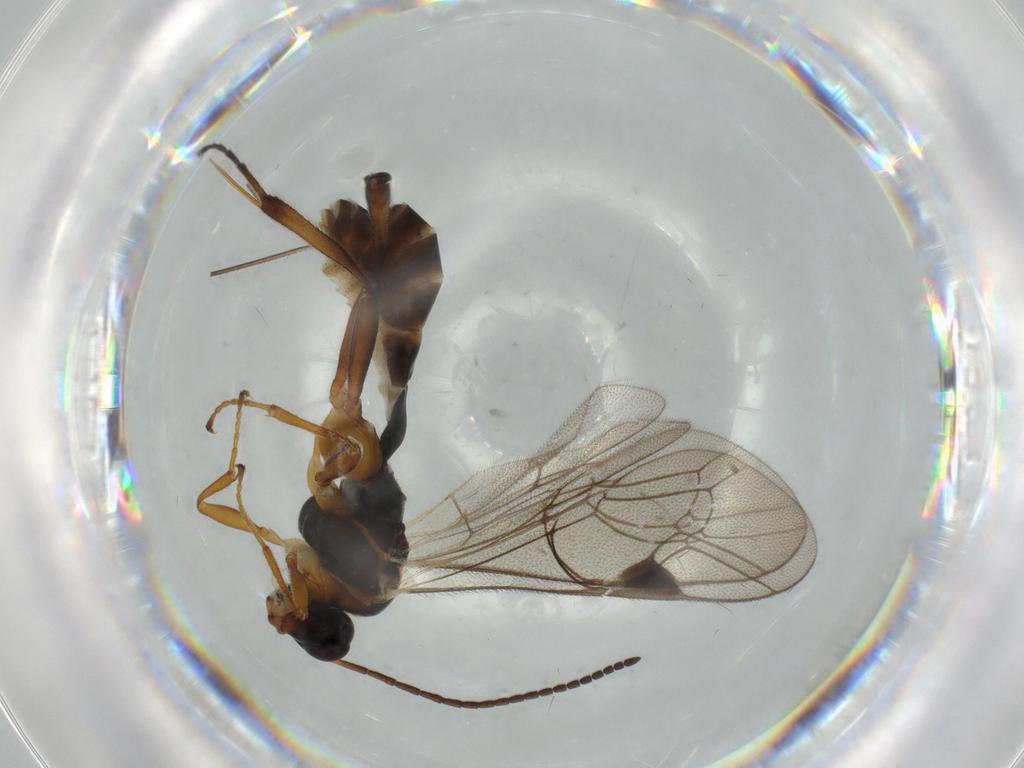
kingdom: Animalia
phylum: Arthropoda
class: Insecta
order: Hymenoptera
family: Ichneumonidae
